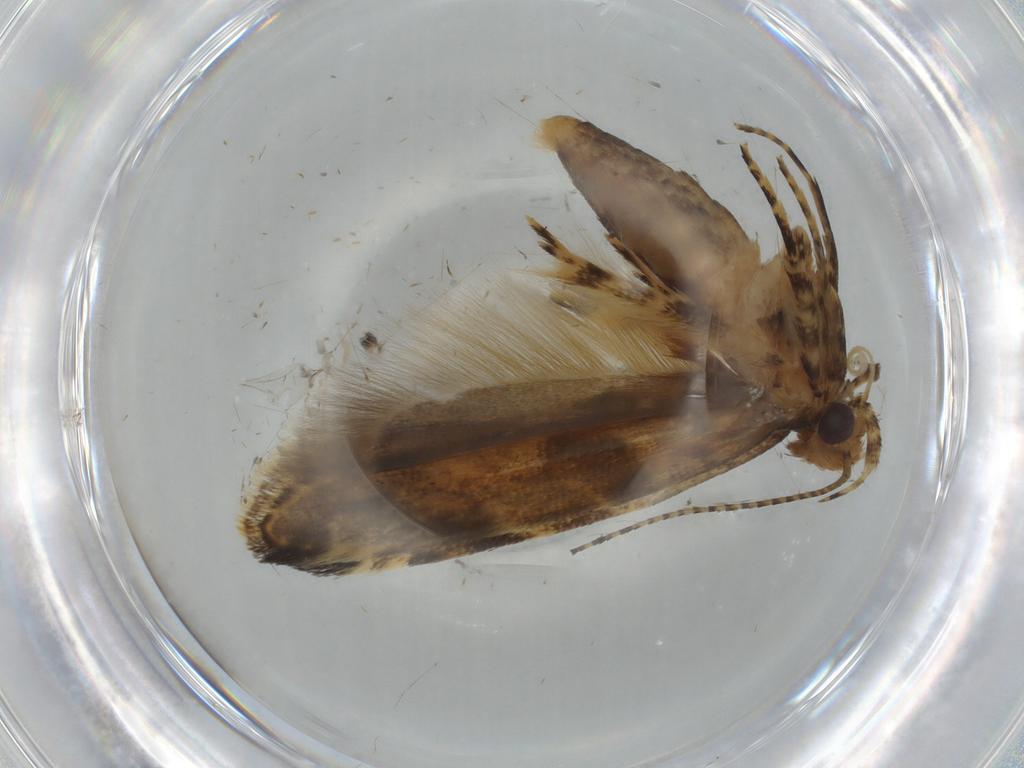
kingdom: Animalia
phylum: Arthropoda
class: Insecta
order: Lepidoptera
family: Gelechiidae
